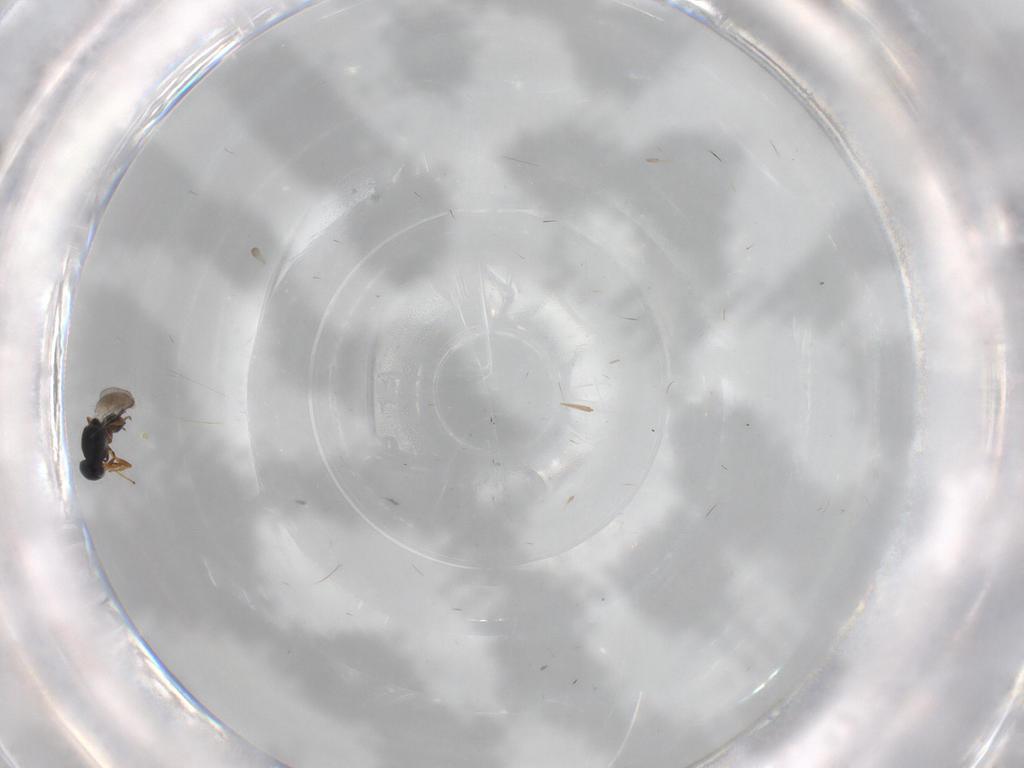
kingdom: Animalia
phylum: Arthropoda
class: Insecta
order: Hymenoptera
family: Platygastridae
